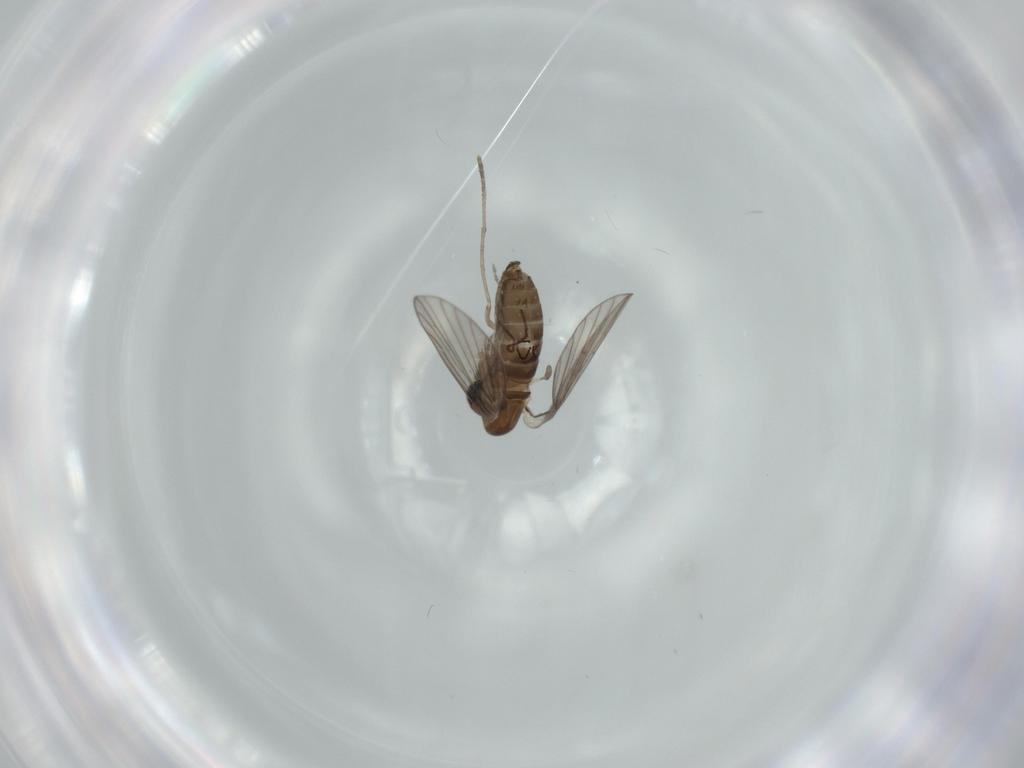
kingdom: Animalia
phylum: Arthropoda
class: Insecta
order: Diptera
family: Psychodidae
